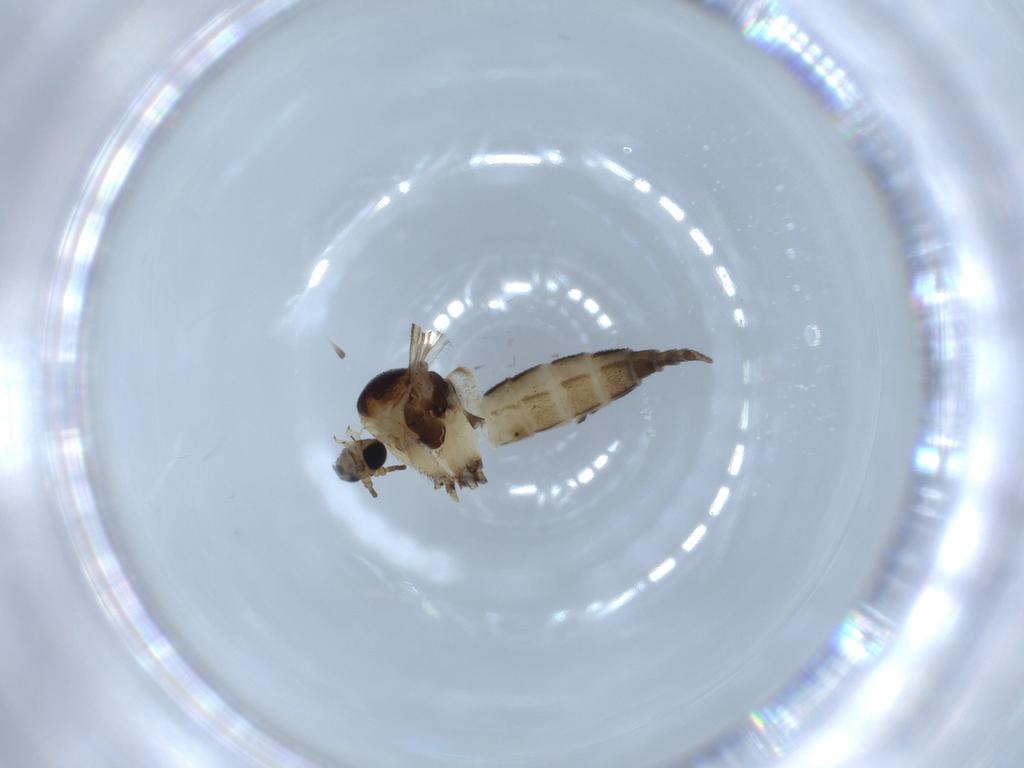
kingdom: Animalia
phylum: Arthropoda
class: Insecta
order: Diptera
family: Sciaridae
